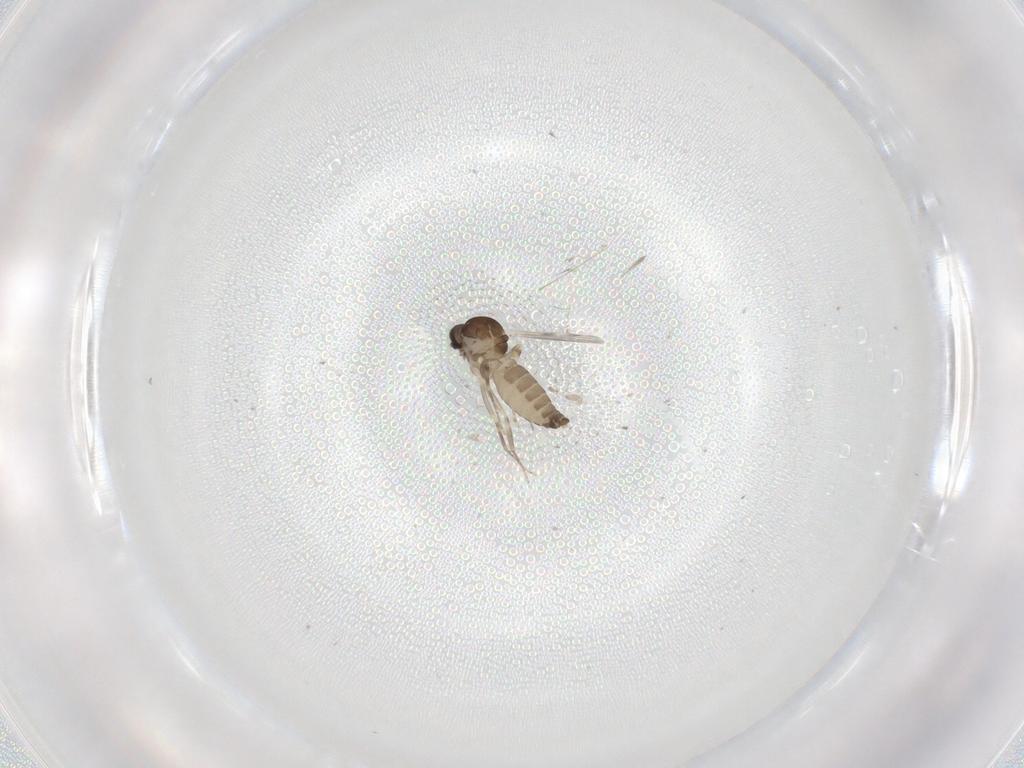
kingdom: Animalia
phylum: Arthropoda
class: Insecta
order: Diptera
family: Ceratopogonidae
